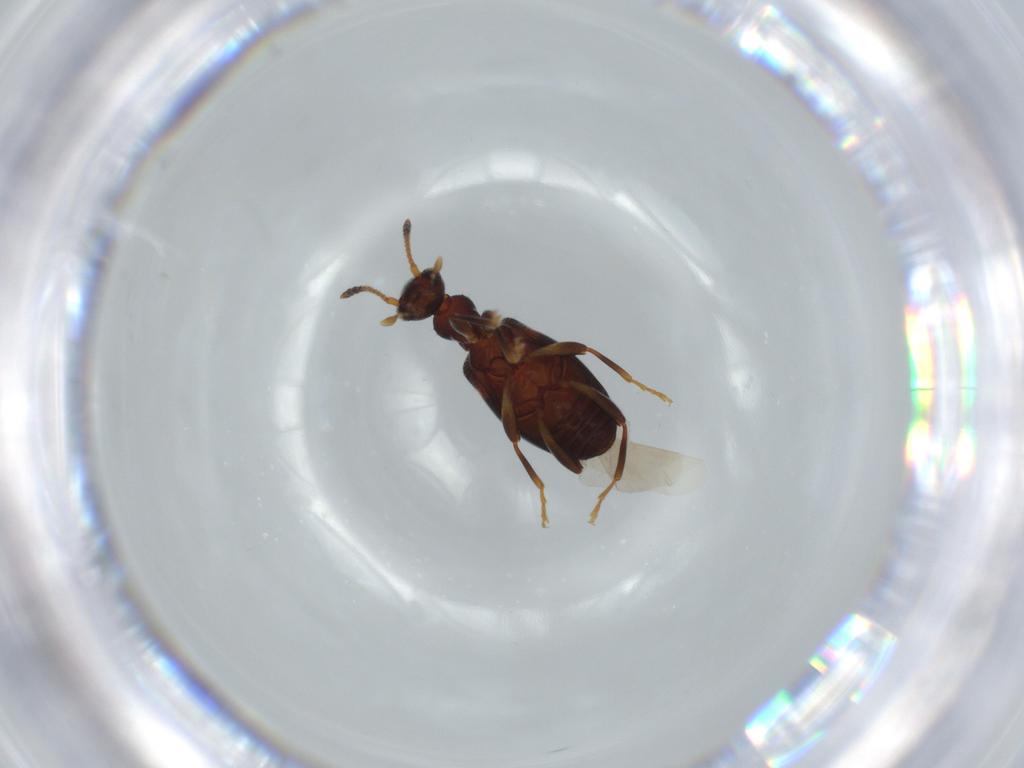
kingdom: Animalia
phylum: Arthropoda
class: Insecta
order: Coleoptera
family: Anthicidae
